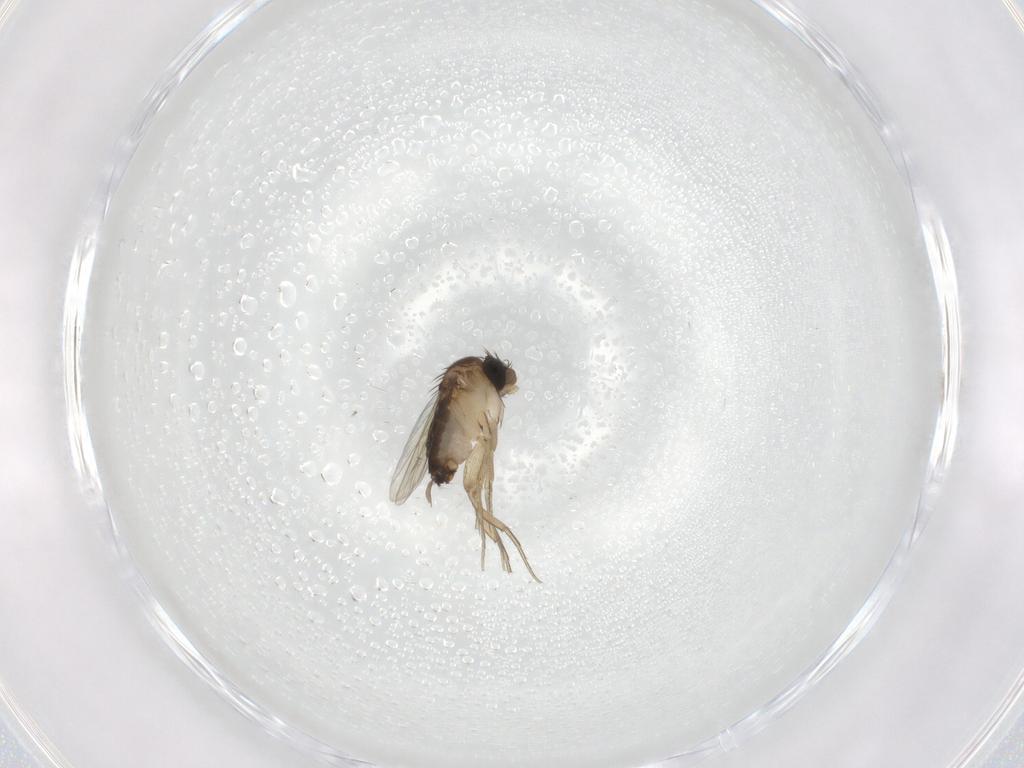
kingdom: Animalia
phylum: Arthropoda
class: Insecta
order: Diptera
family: Phoridae
